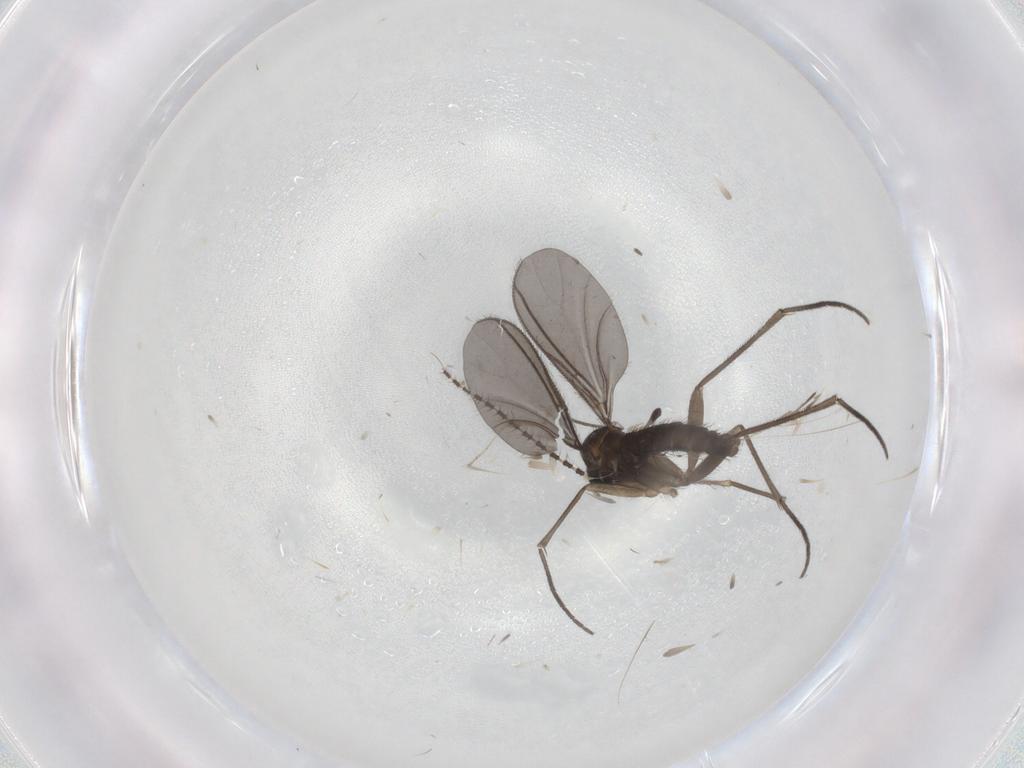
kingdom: Animalia
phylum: Arthropoda
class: Insecta
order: Diptera
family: Sciaridae
